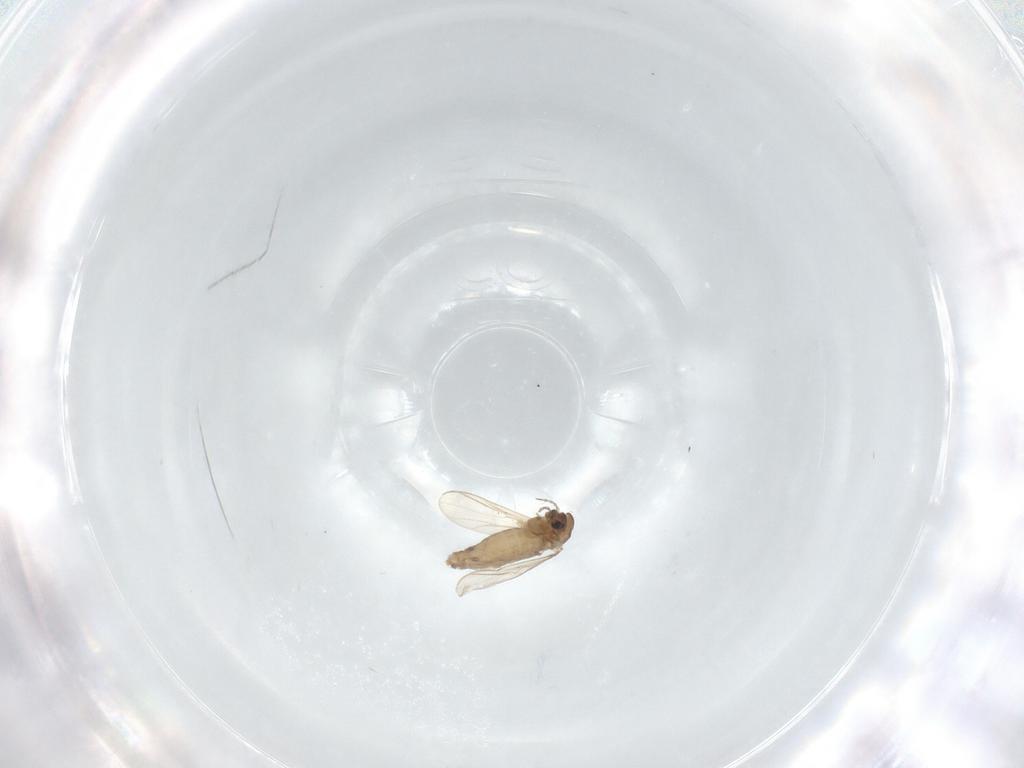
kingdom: Animalia
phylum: Arthropoda
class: Insecta
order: Diptera
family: Chironomidae
